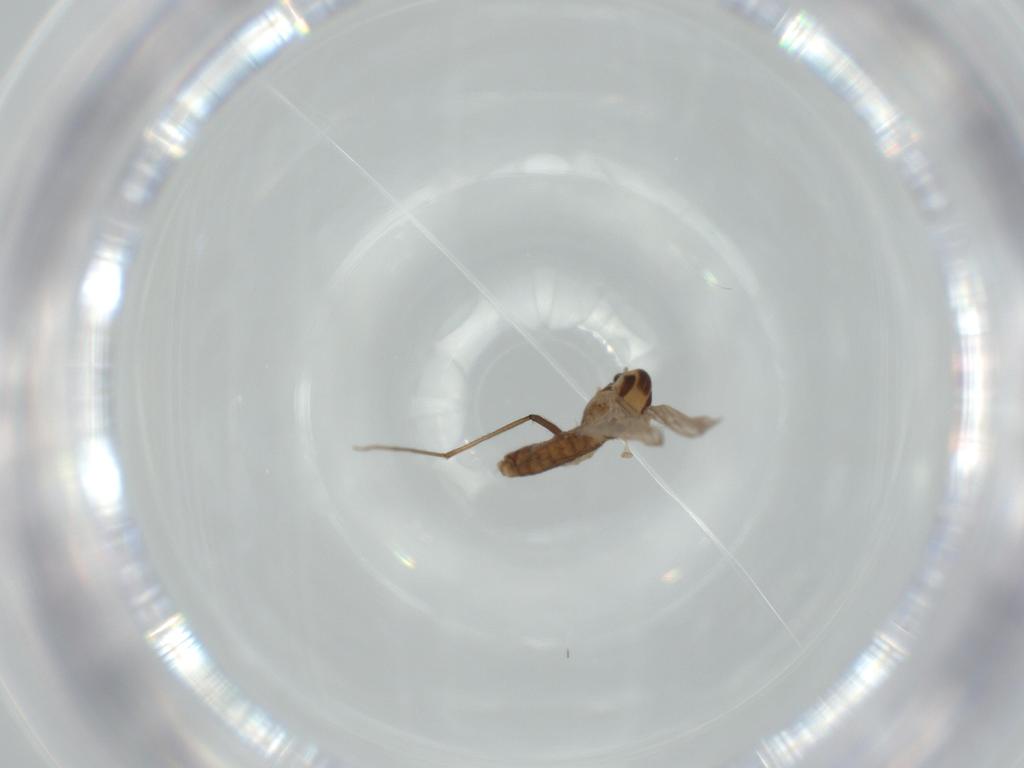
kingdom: Animalia
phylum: Arthropoda
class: Insecta
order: Diptera
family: Chironomidae
